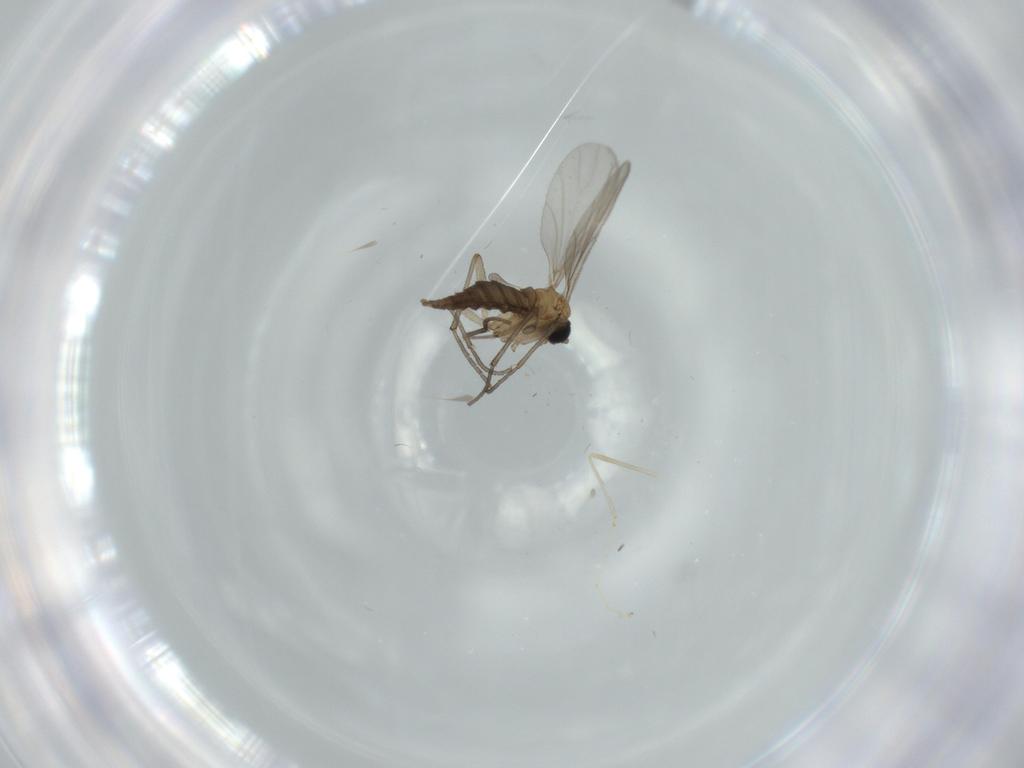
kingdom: Animalia
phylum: Arthropoda
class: Insecta
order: Diptera
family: Sciaridae
